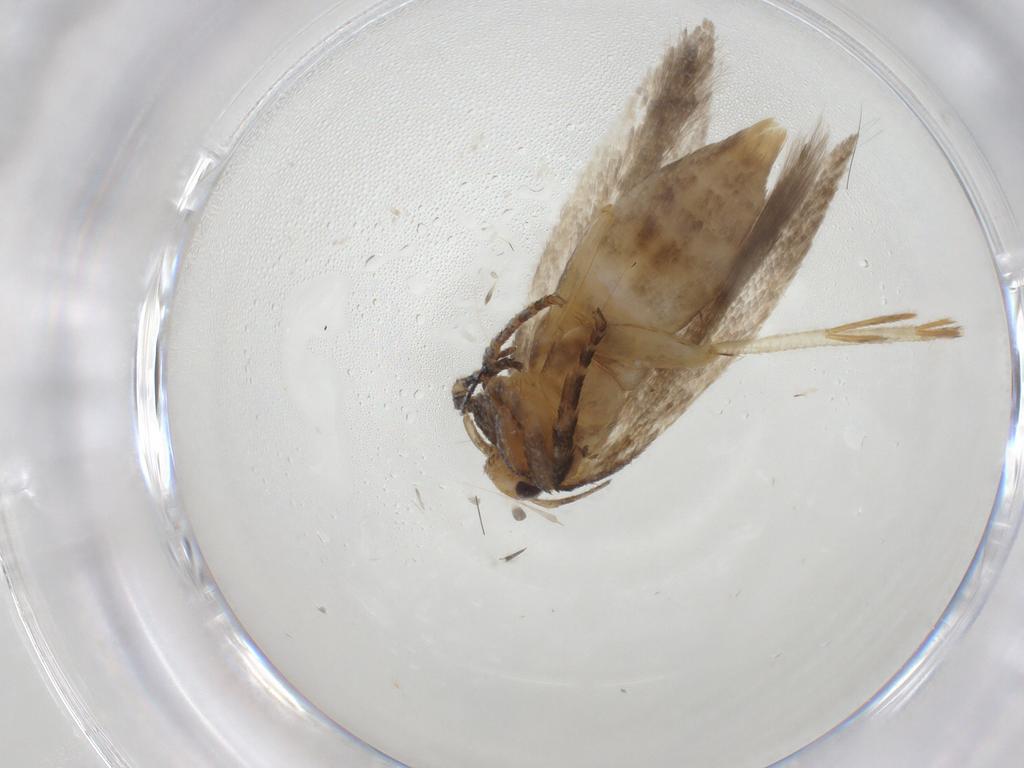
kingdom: Animalia
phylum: Arthropoda
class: Insecta
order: Lepidoptera
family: Gelechiidae
